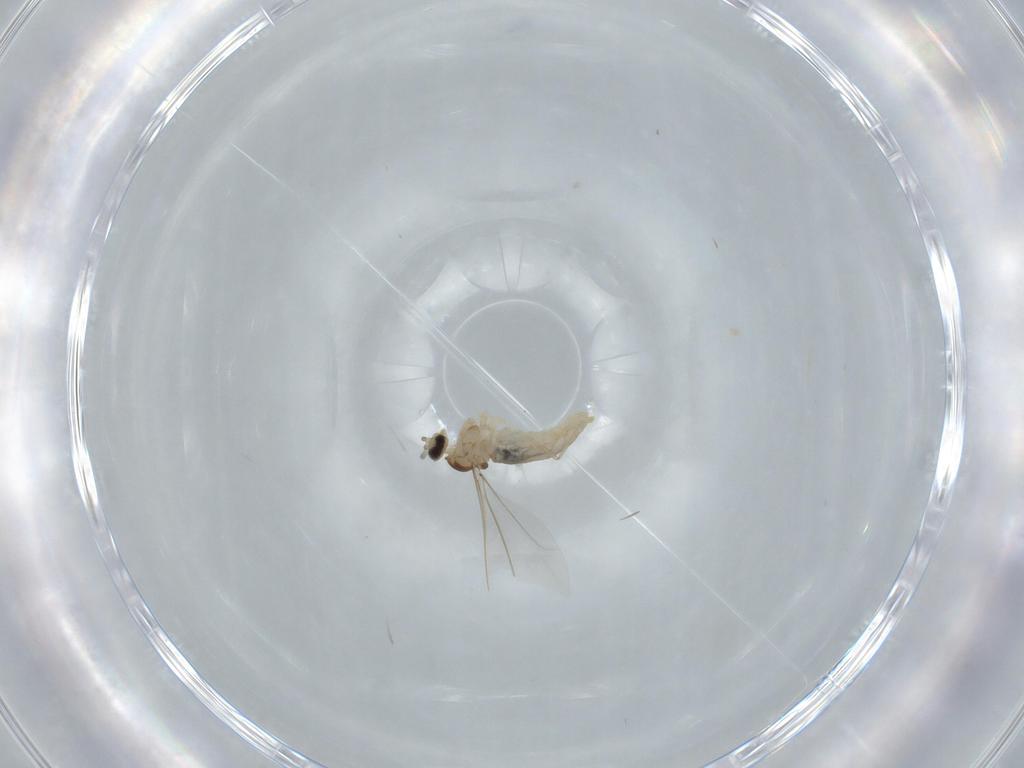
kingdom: Animalia
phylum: Arthropoda
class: Insecta
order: Diptera
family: Cecidomyiidae
